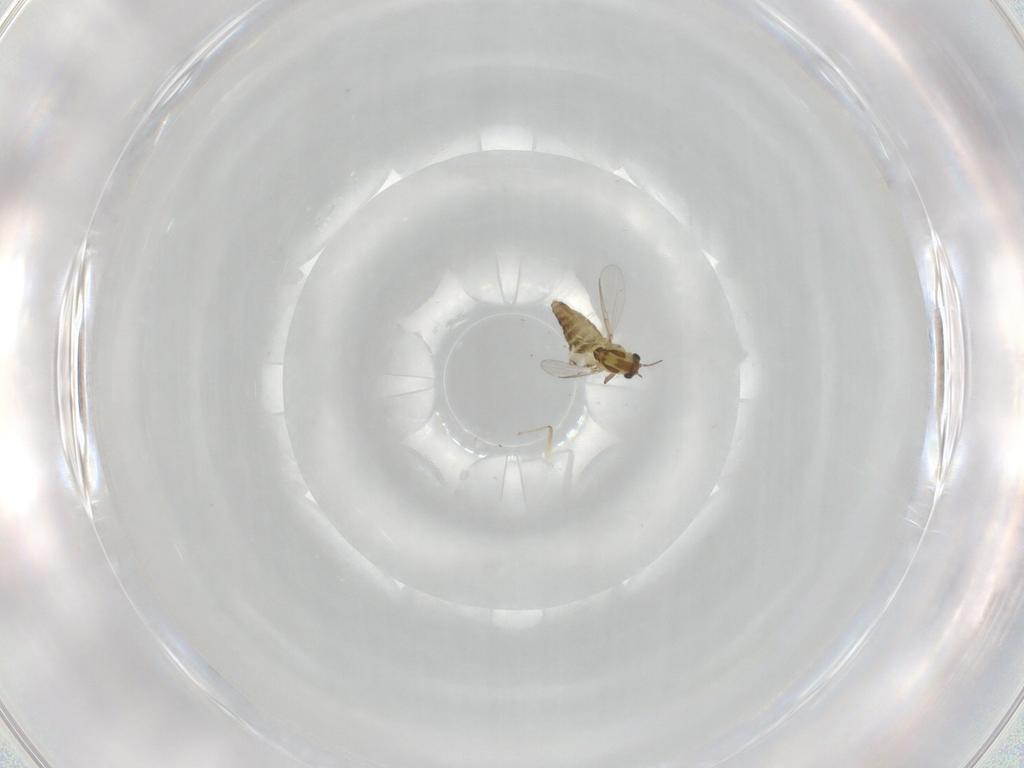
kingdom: Animalia
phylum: Arthropoda
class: Insecta
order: Diptera
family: Chironomidae
